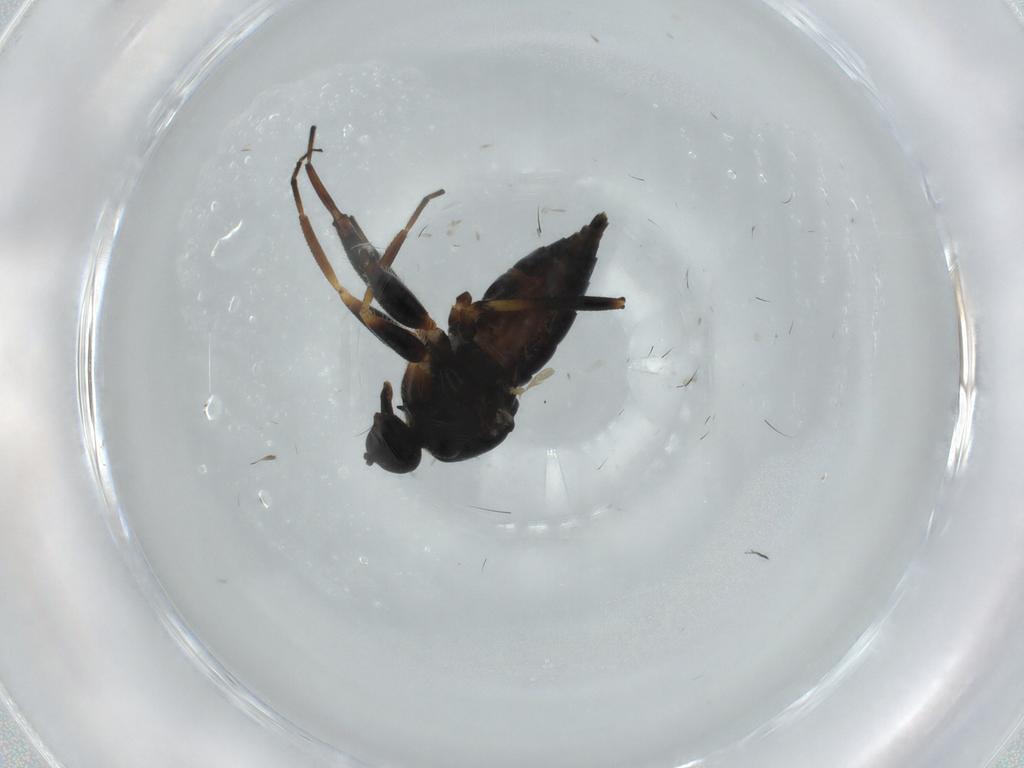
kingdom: Animalia
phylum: Arthropoda
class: Insecta
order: Diptera
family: Hybotidae
